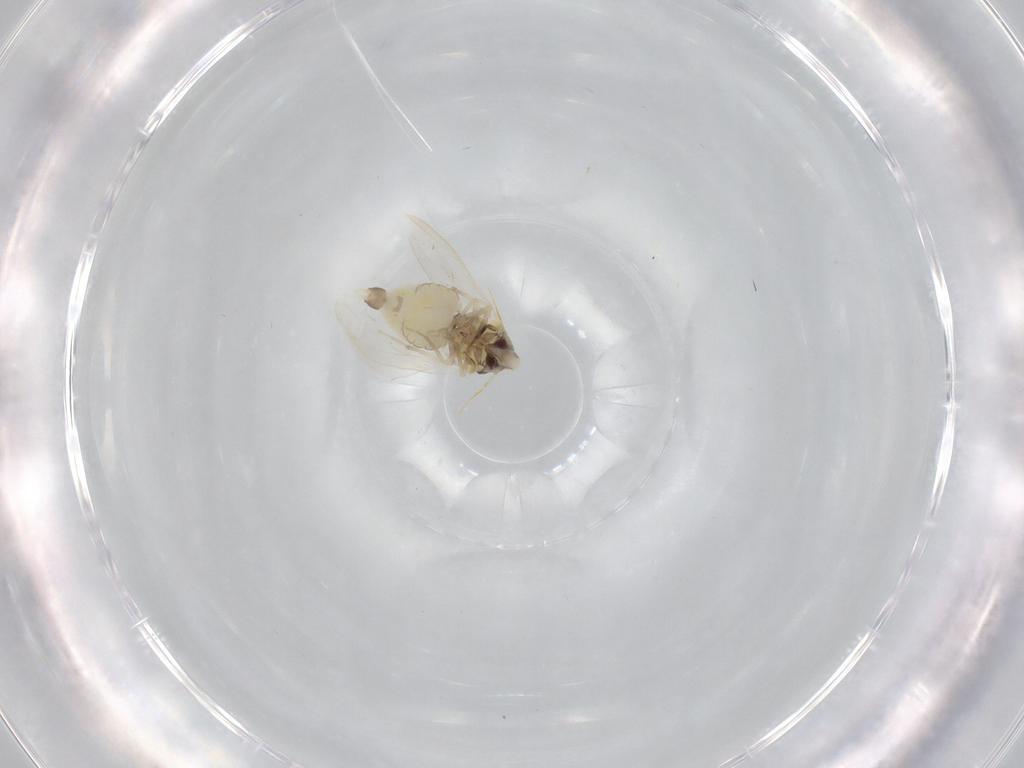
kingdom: Animalia
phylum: Arthropoda
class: Insecta
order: Hemiptera
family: Aleyrodidae
